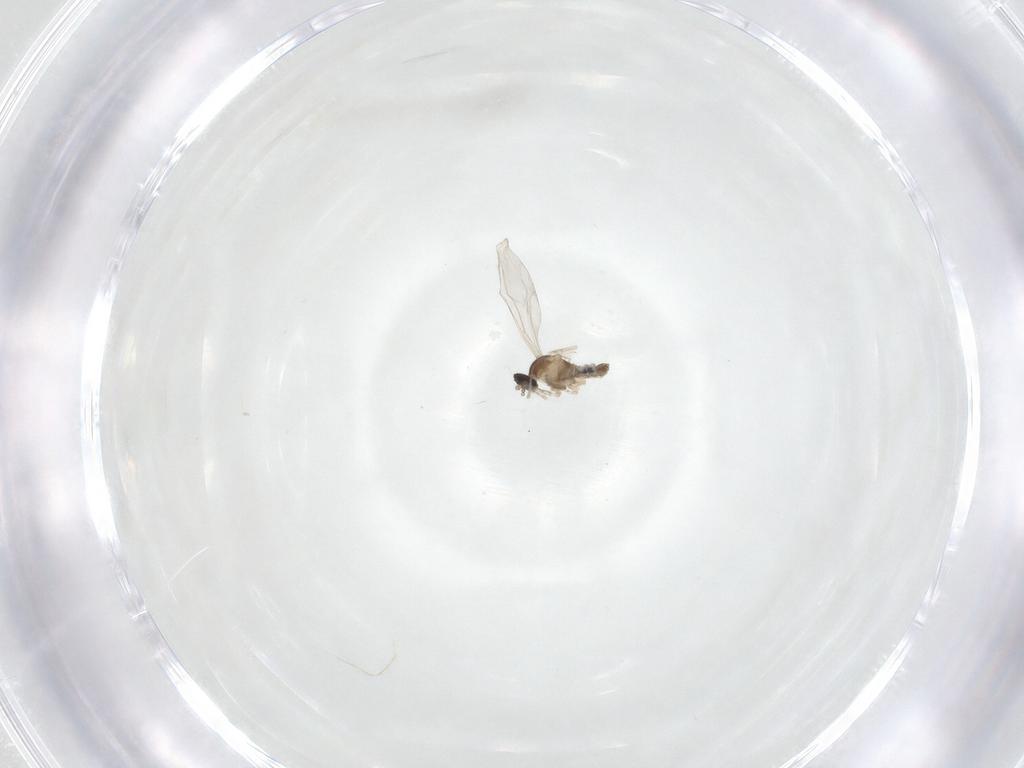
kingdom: Animalia
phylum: Arthropoda
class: Insecta
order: Diptera
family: Cecidomyiidae
